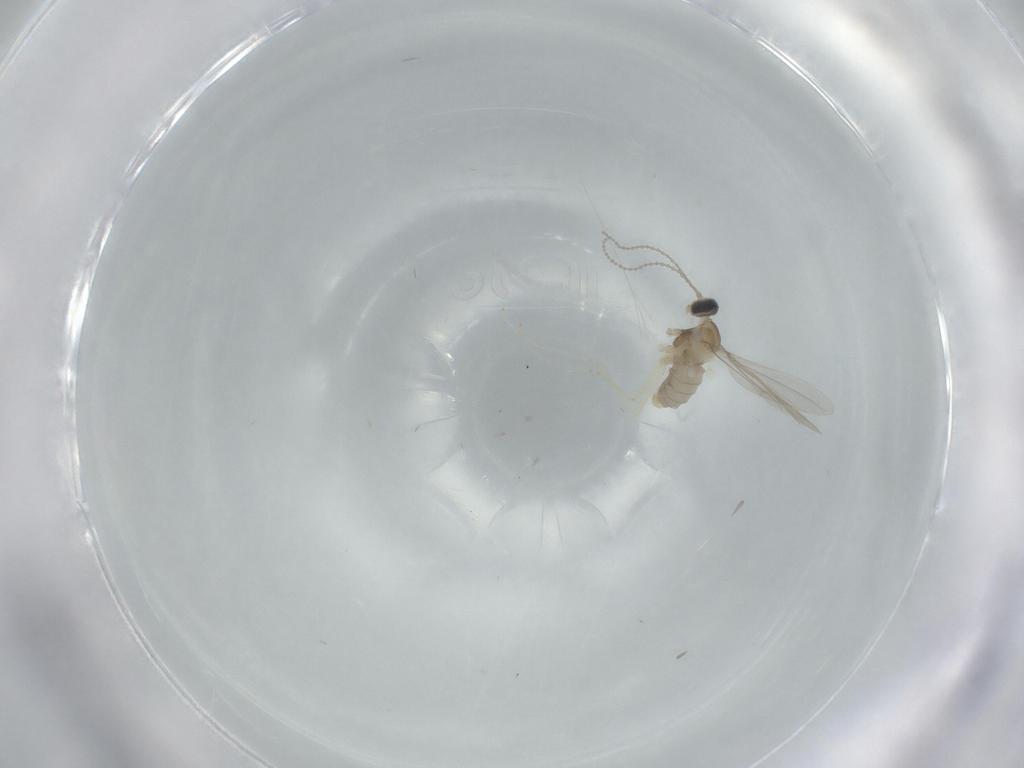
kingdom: Animalia
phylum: Arthropoda
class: Insecta
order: Diptera
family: Cecidomyiidae
